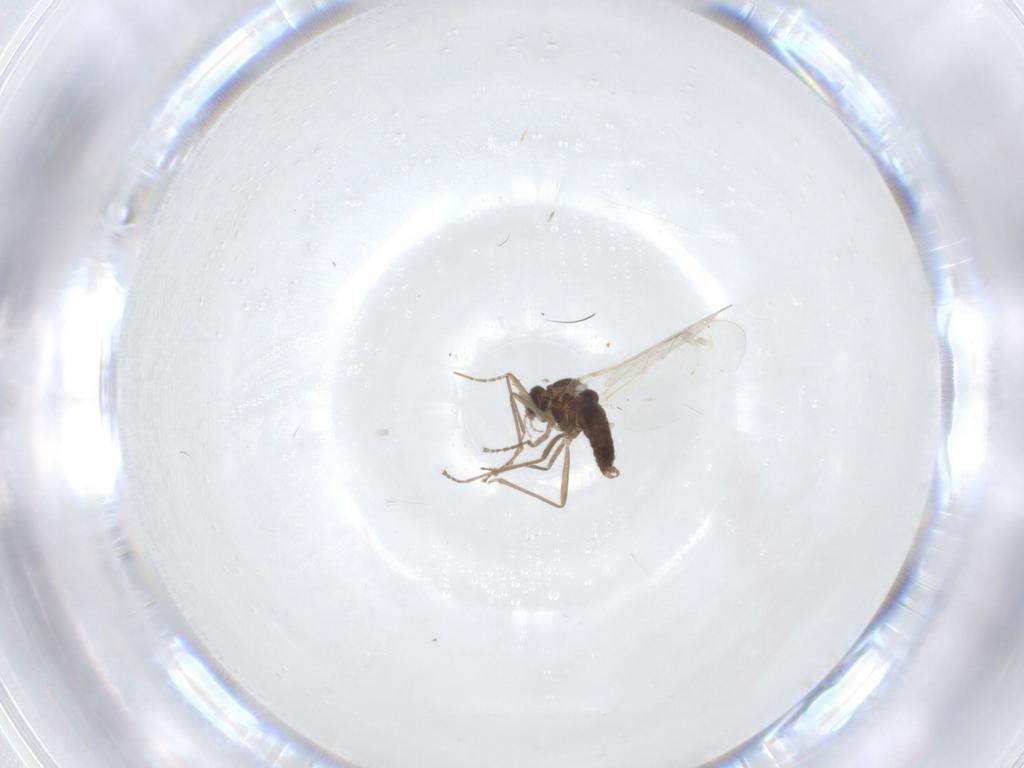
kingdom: Animalia
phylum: Arthropoda
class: Insecta
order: Diptera
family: Cecidomyiidae
